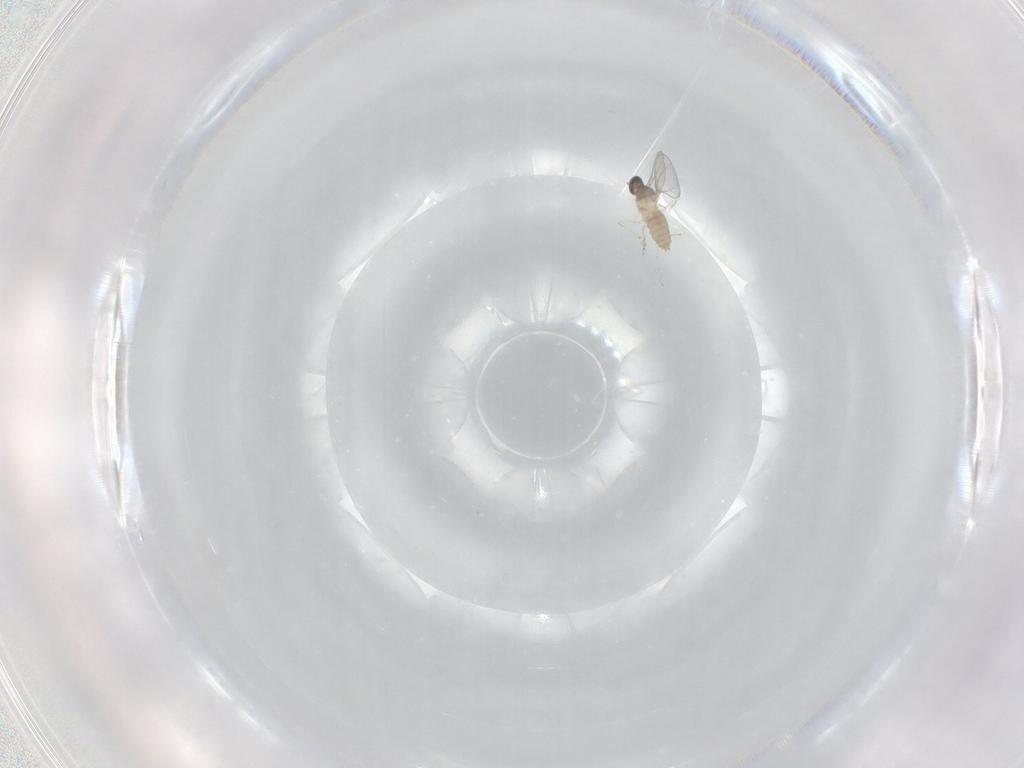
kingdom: Animalia
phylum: Arthropoda
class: Insecta
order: Diptera
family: Cecidomyiidae
